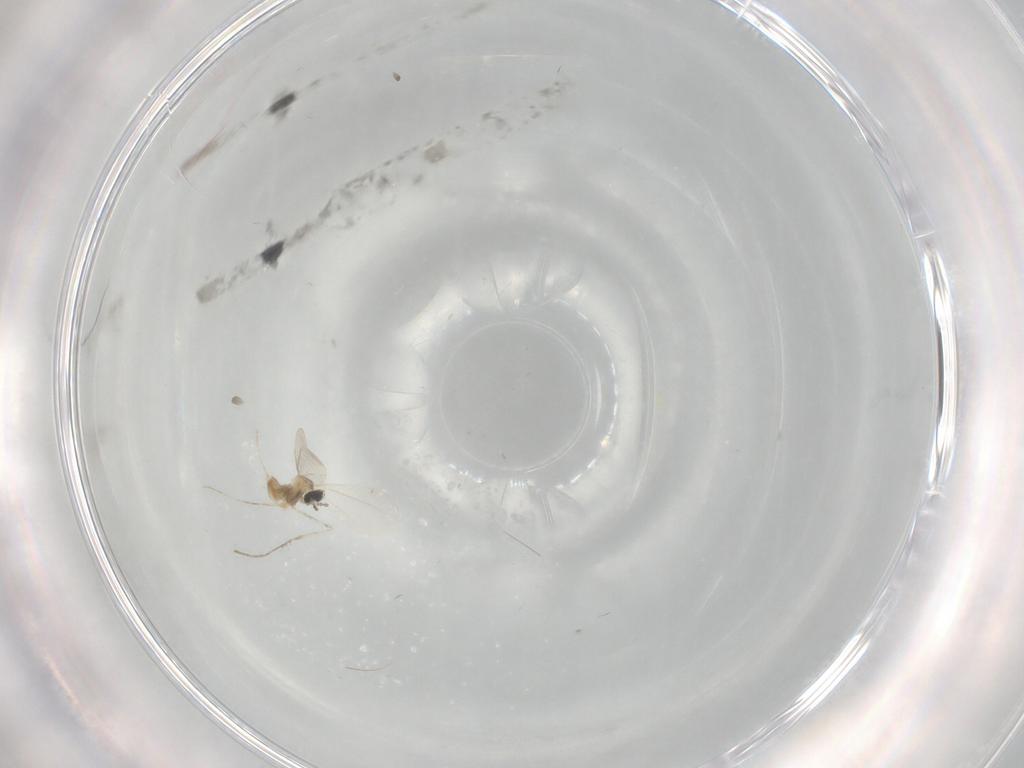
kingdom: Animalia
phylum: Arthropoda
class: Insecta
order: Diptera
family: Cecidomyiidae
